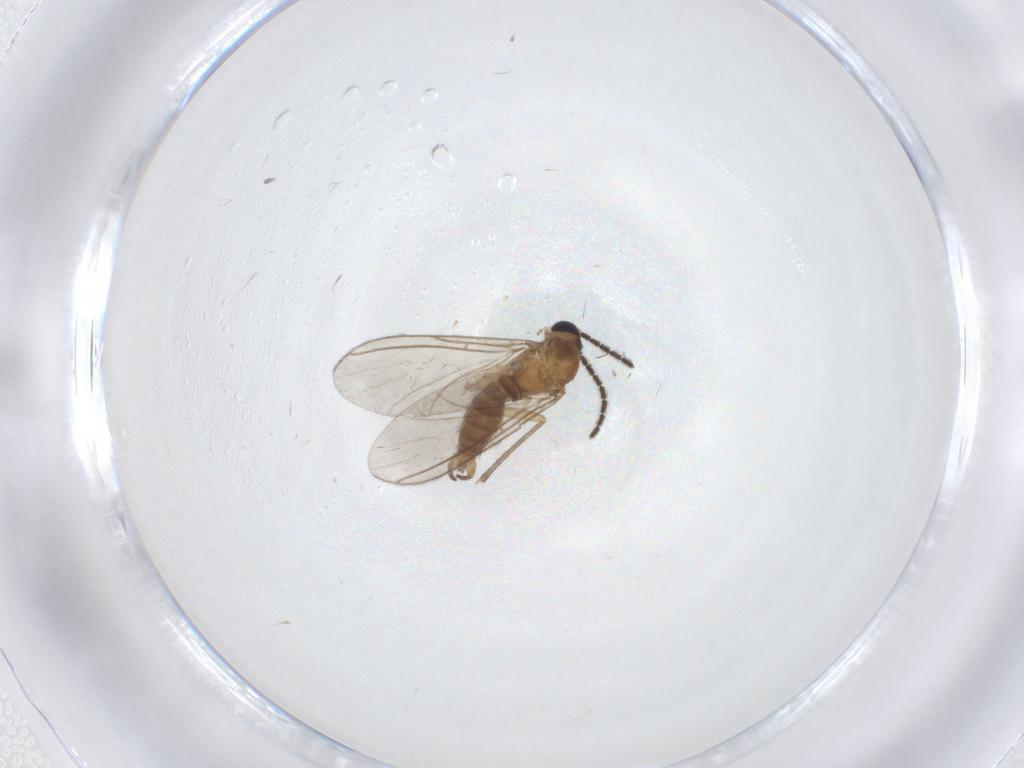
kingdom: Animalia
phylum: Arthropoda
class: Insecta
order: Diptera
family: Sciaridae
